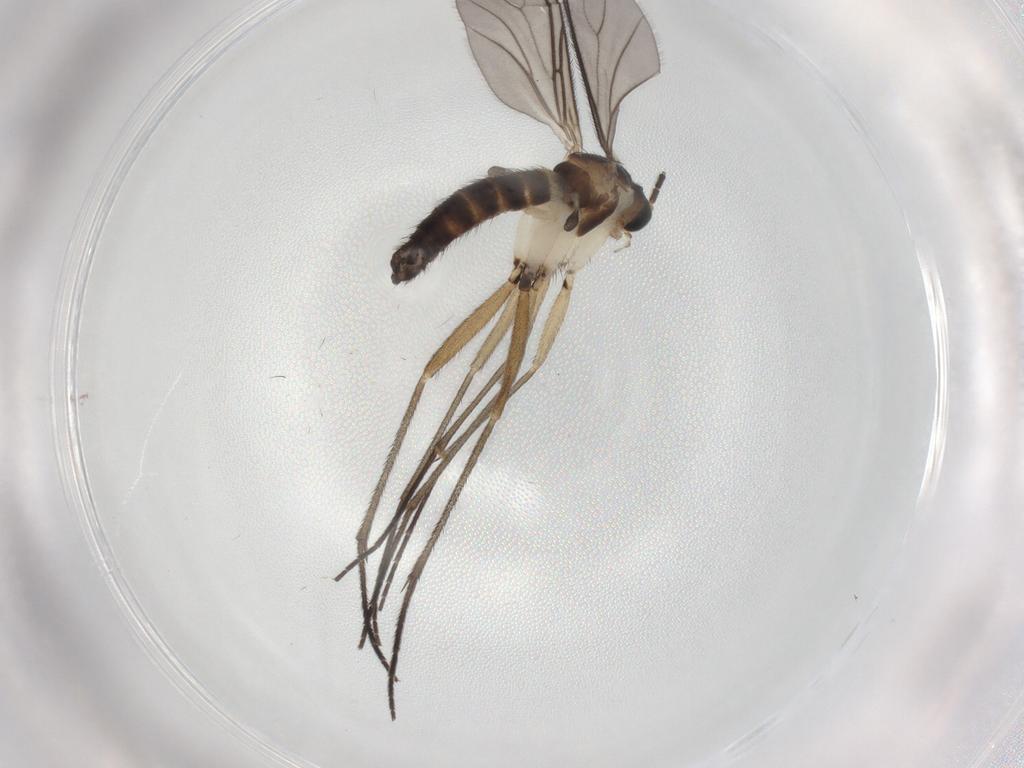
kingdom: Animalia
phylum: Arthropoda
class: Insecta
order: Diptera
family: Sciaridae
